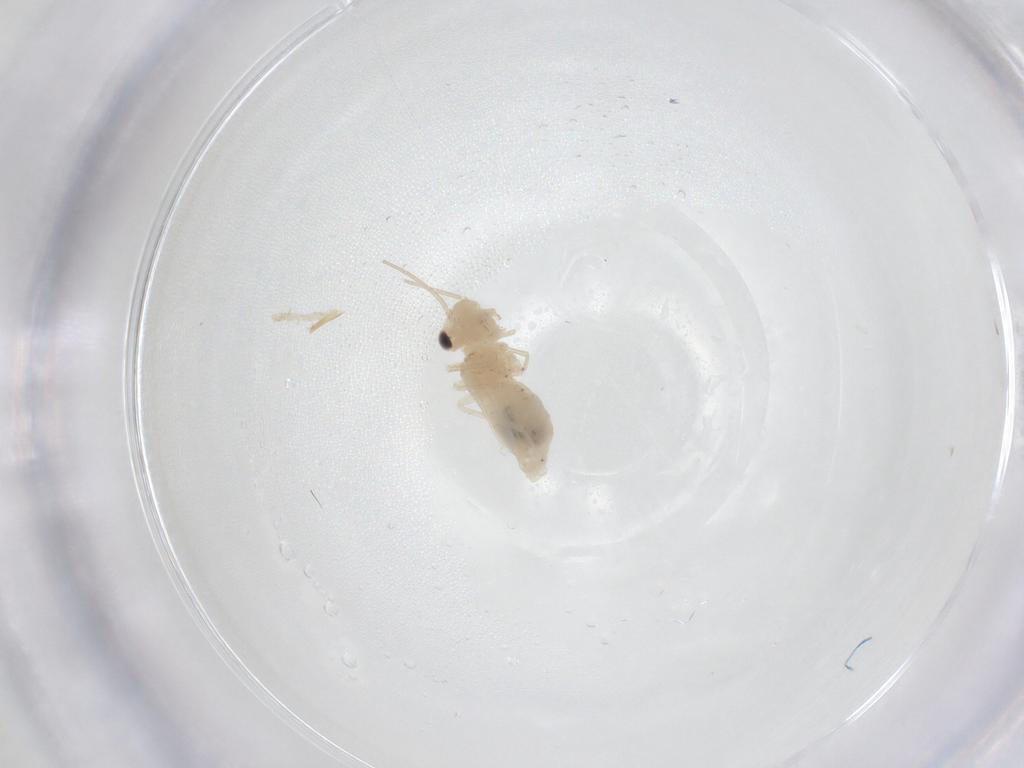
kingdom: Animalia
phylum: Arthropoda
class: Insecta
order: Psocodea
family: Caeciliusidae
